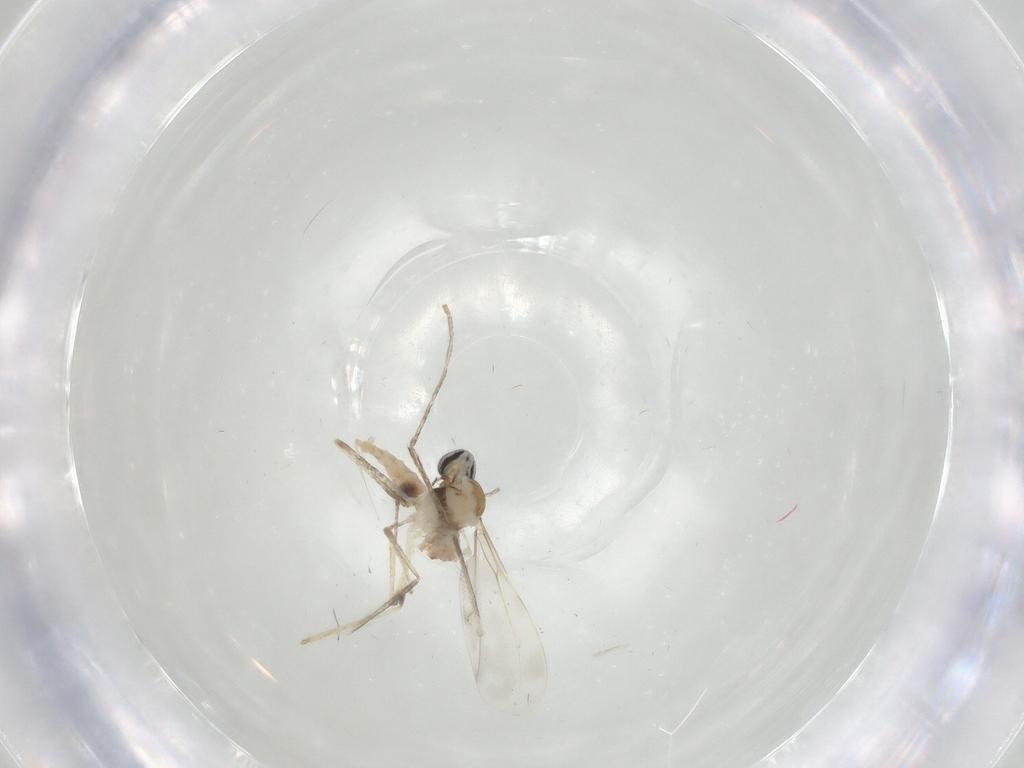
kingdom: Animalia
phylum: Arthropoda
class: Insecta
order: Diptera
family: Cecidomyiidae
